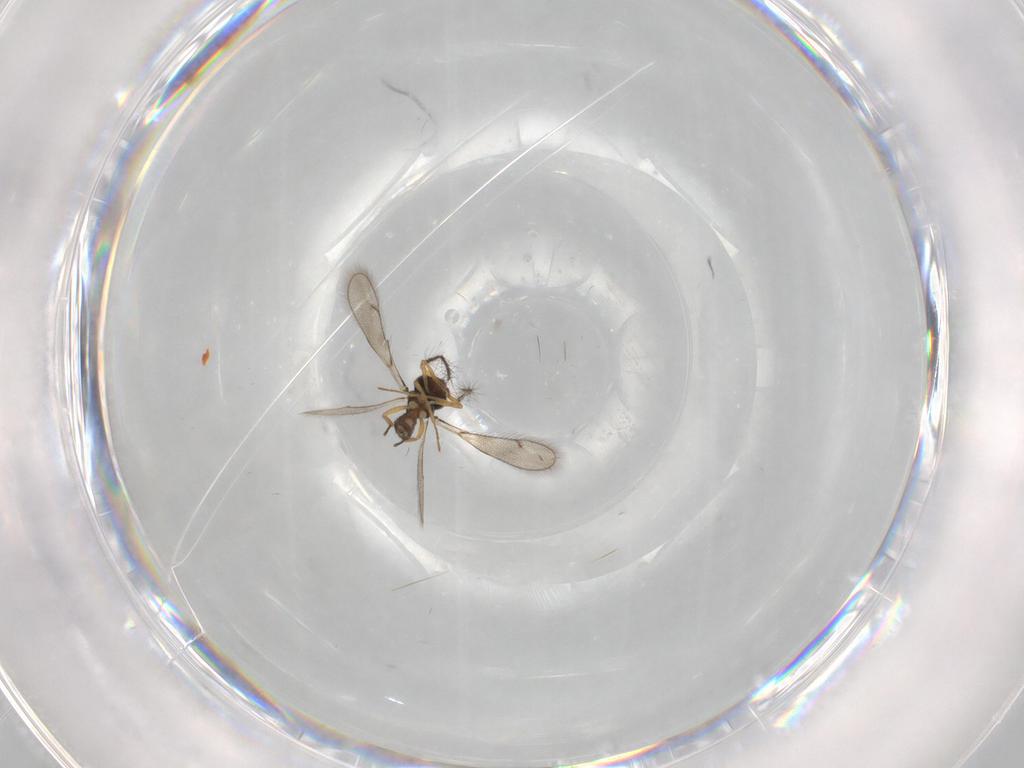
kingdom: Animalia
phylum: Arthropoda
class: Insecta
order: Hymenoptera
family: Eulophidae
